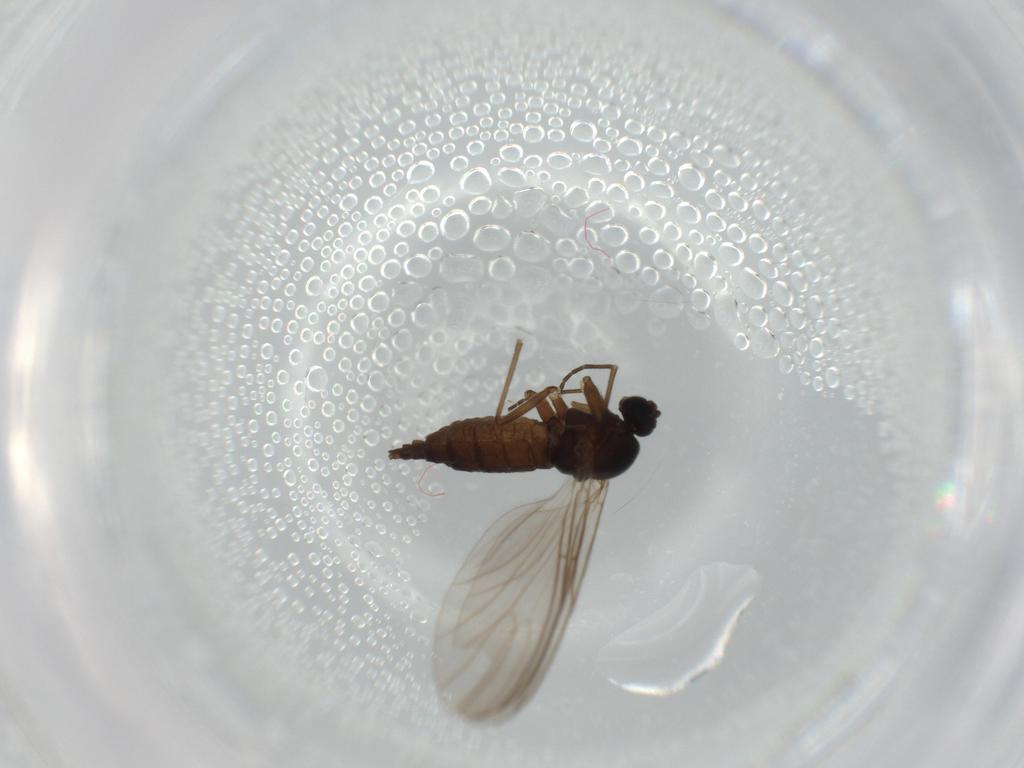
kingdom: Animalia
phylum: Arthropoda
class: Insecta
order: Diptera
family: Sciaridae
